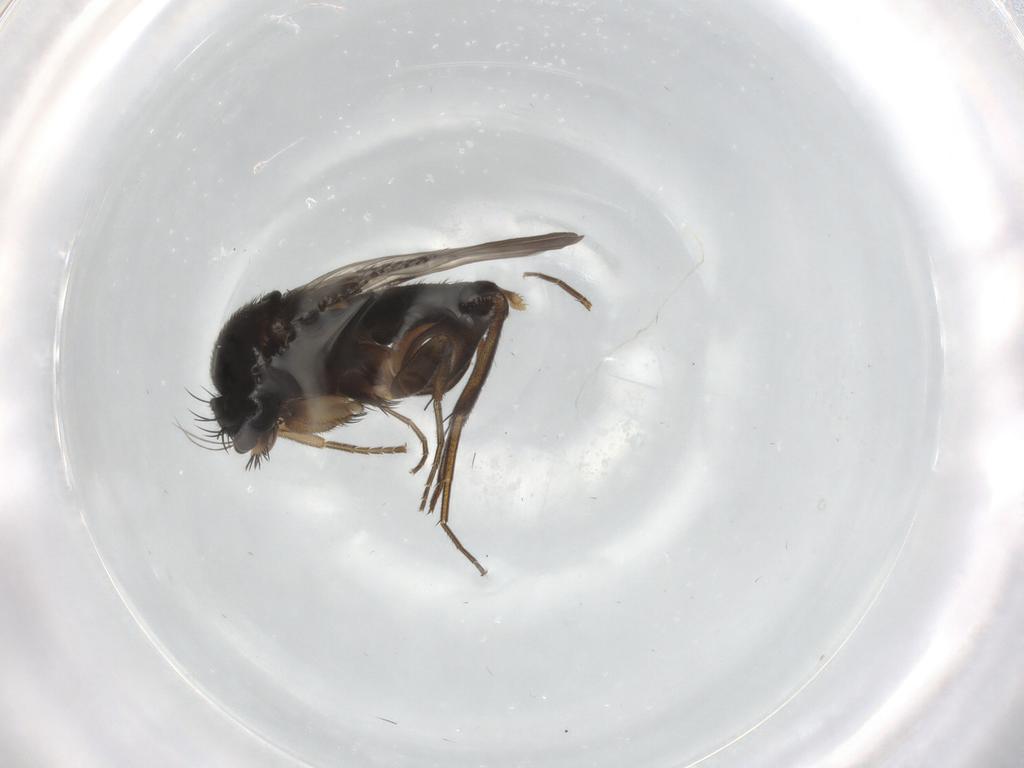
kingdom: Animalia
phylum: Arthropoda
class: Insecta
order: Diptera
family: Phoridae
